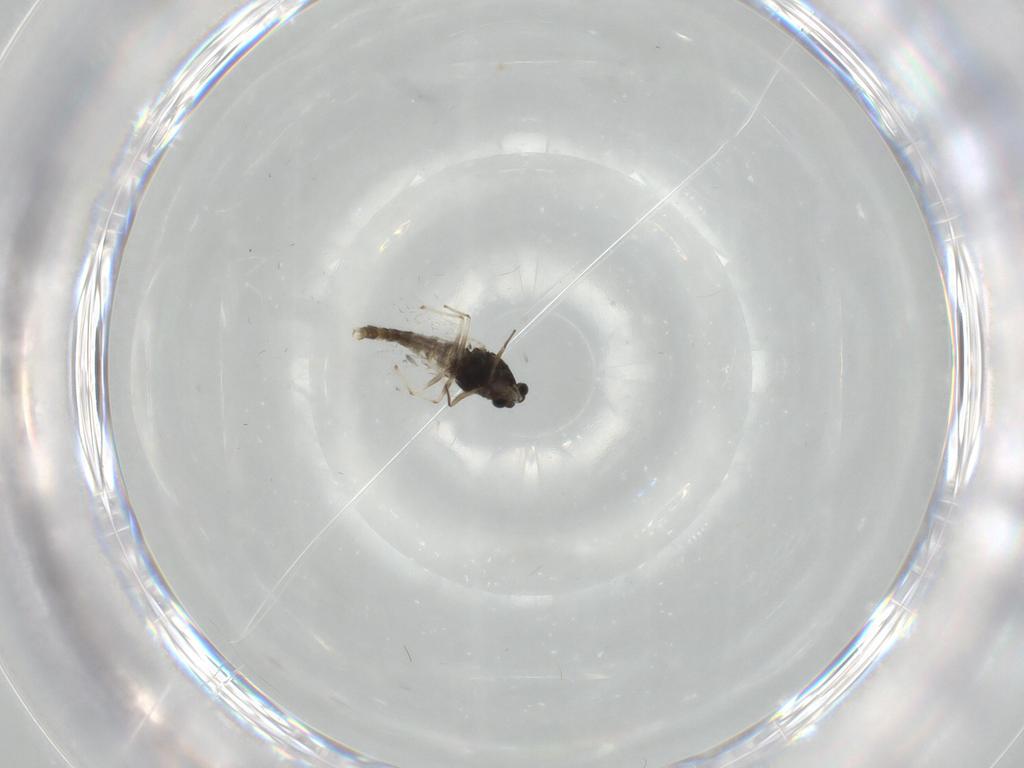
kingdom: Animalia
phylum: Arthropoda
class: Insecta
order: Diptera
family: Chironomidae
